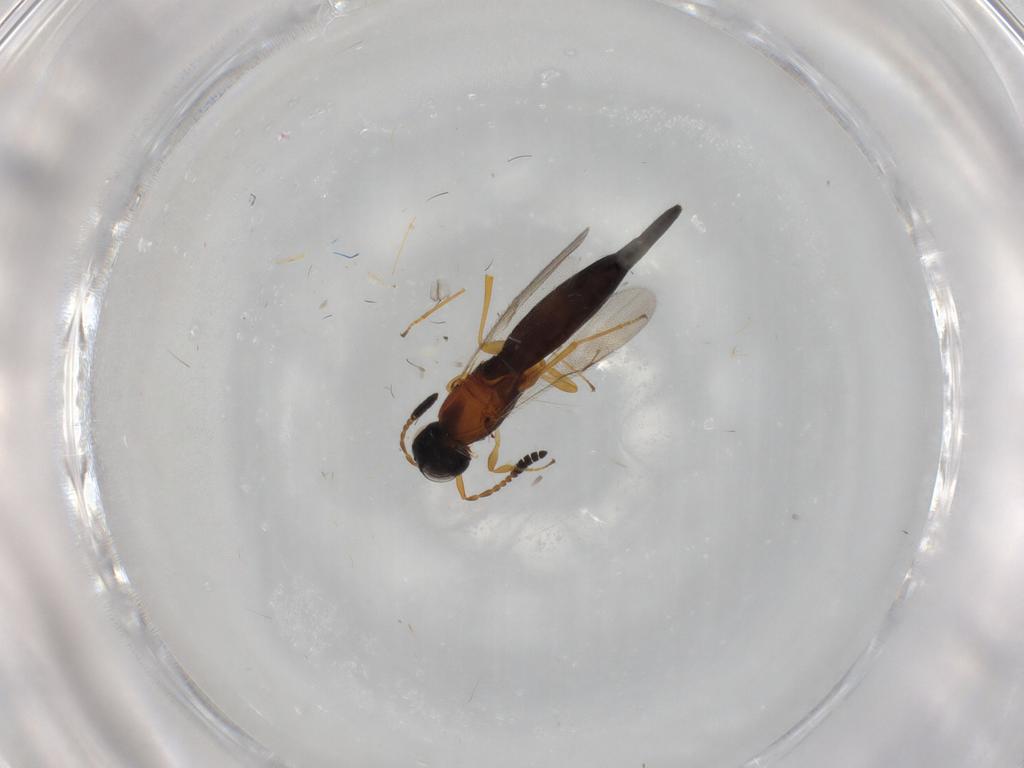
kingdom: Animalia
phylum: Arthropoda
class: Insecta
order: Hymenoptera
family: Scelionidae
